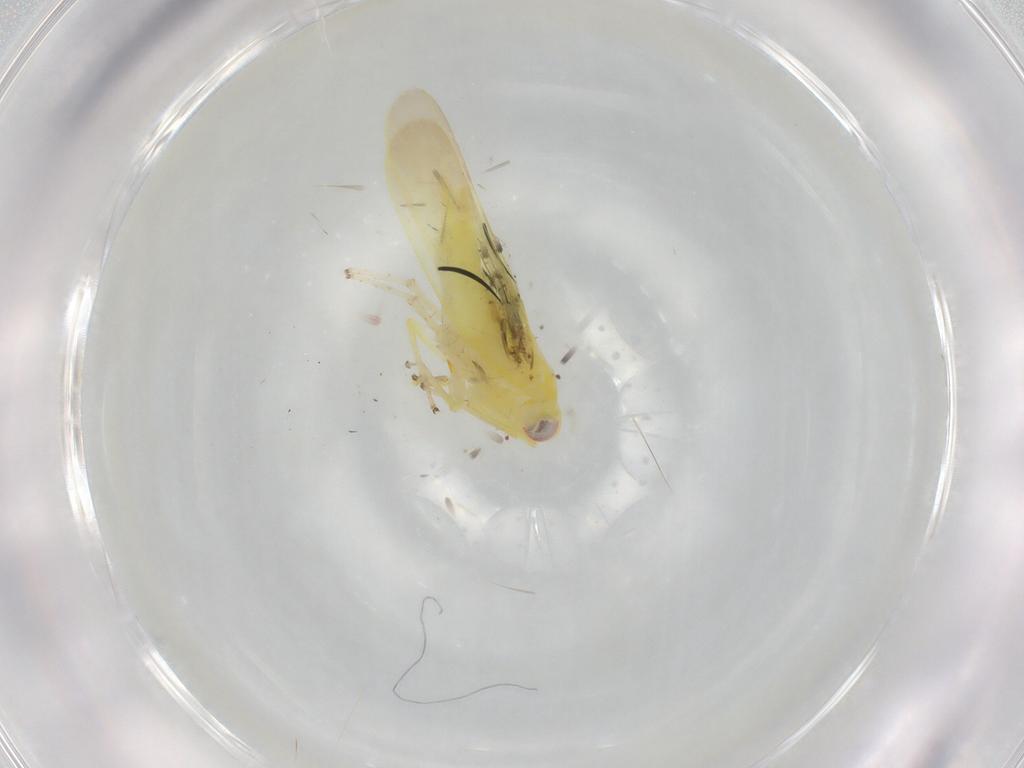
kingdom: Animalia
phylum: Arthropoda
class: Insecta
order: Hemiptera
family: Cicadellidae
